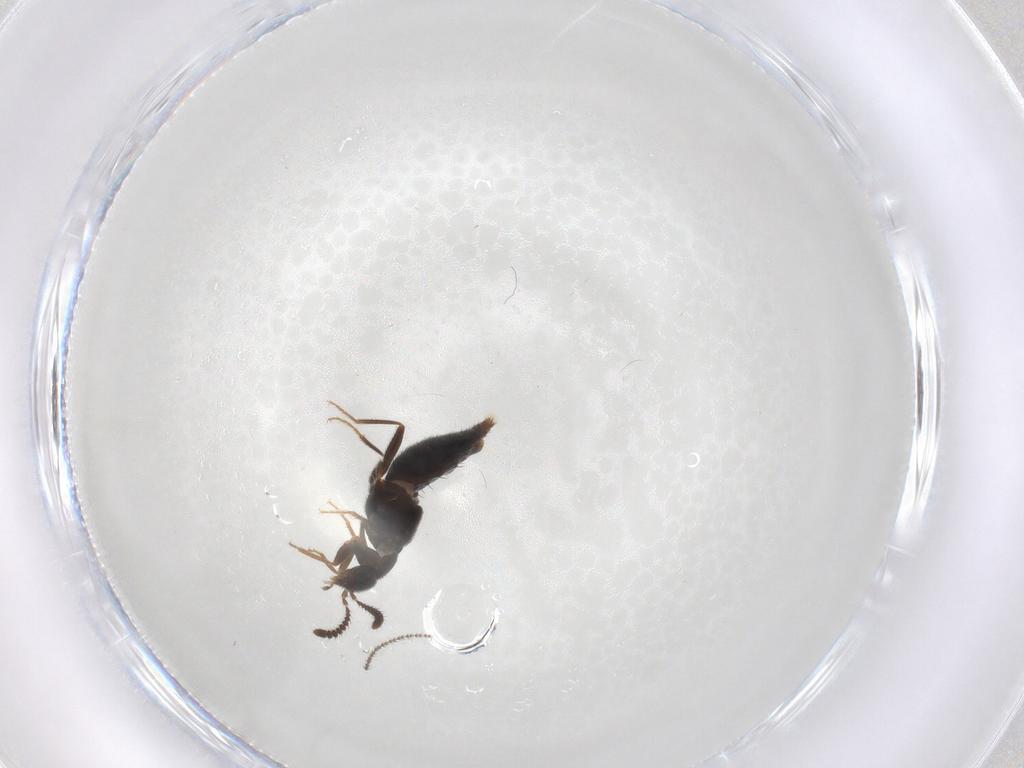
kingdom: Animalia
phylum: Arthropoda
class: Insecta
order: Coleoptera
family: Staphylinidae
